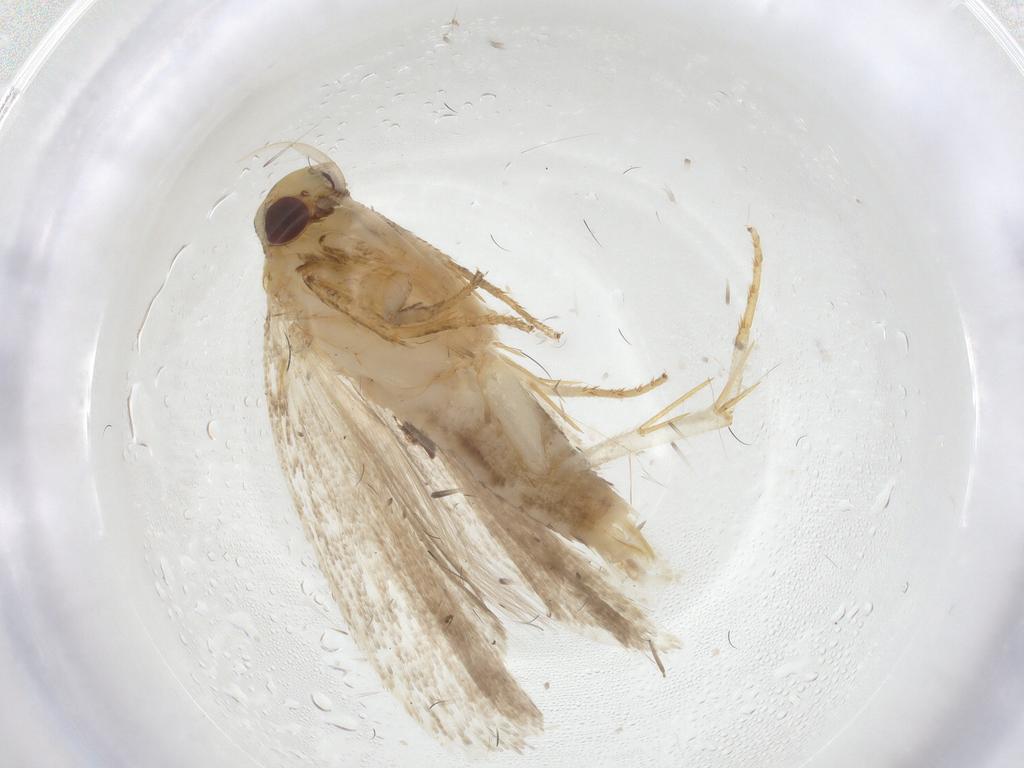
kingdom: Animalia
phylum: Arthropoda
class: Insecta
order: Lepidoptera
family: Gelechiidae
